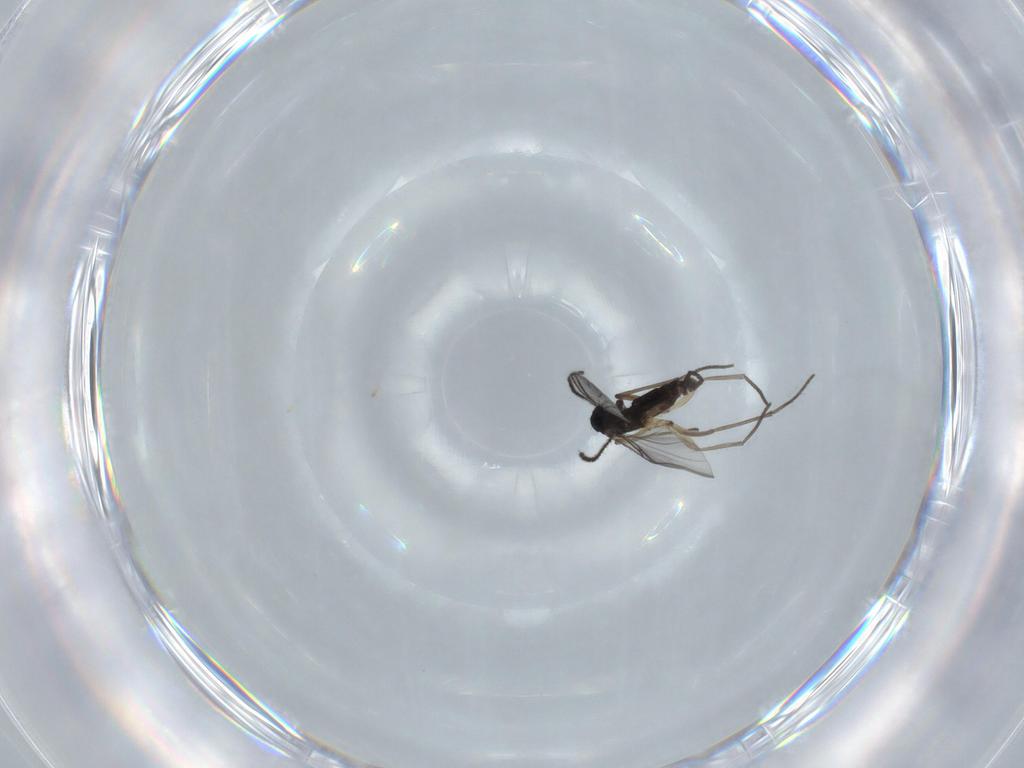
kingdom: Animalia
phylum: Arthropoda
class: Insecta
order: Diptera
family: Sciaridae
